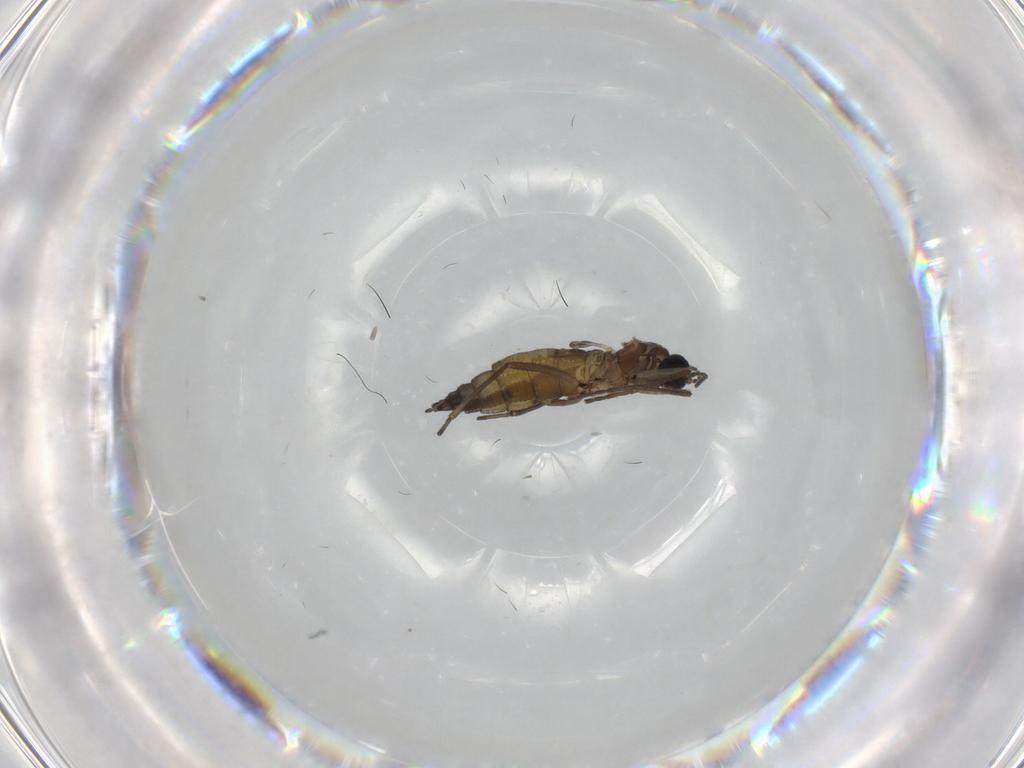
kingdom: Animalia
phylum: Arthropoda
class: Insecta
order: Diptera
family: Sciaridae
